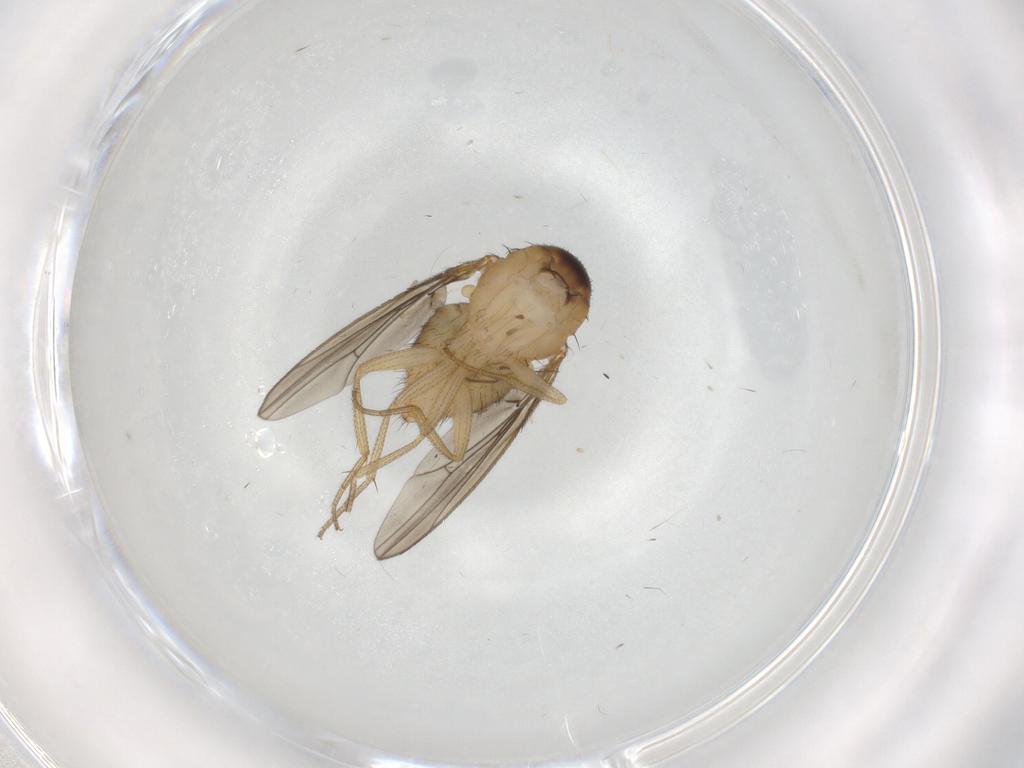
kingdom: Animalia
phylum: Arthropoda
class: Insecta
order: Diptera
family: Drosophilidae
